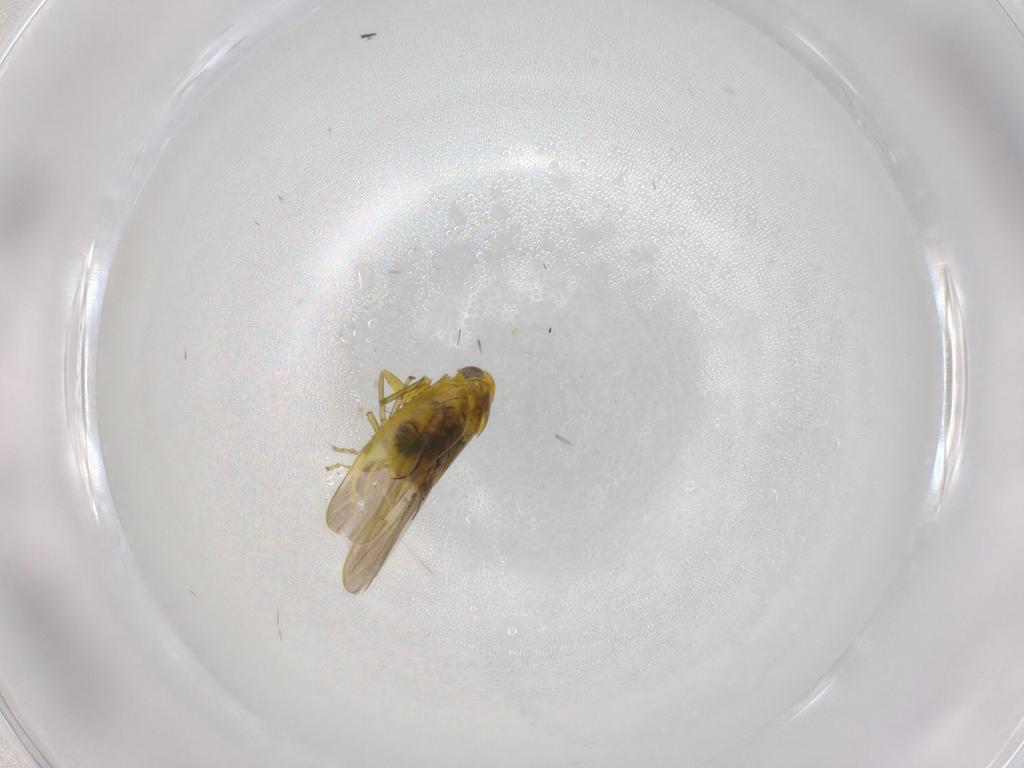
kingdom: Animalia
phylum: Arthropoda
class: Insecta
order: Hemiptera
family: Cicadellidae
